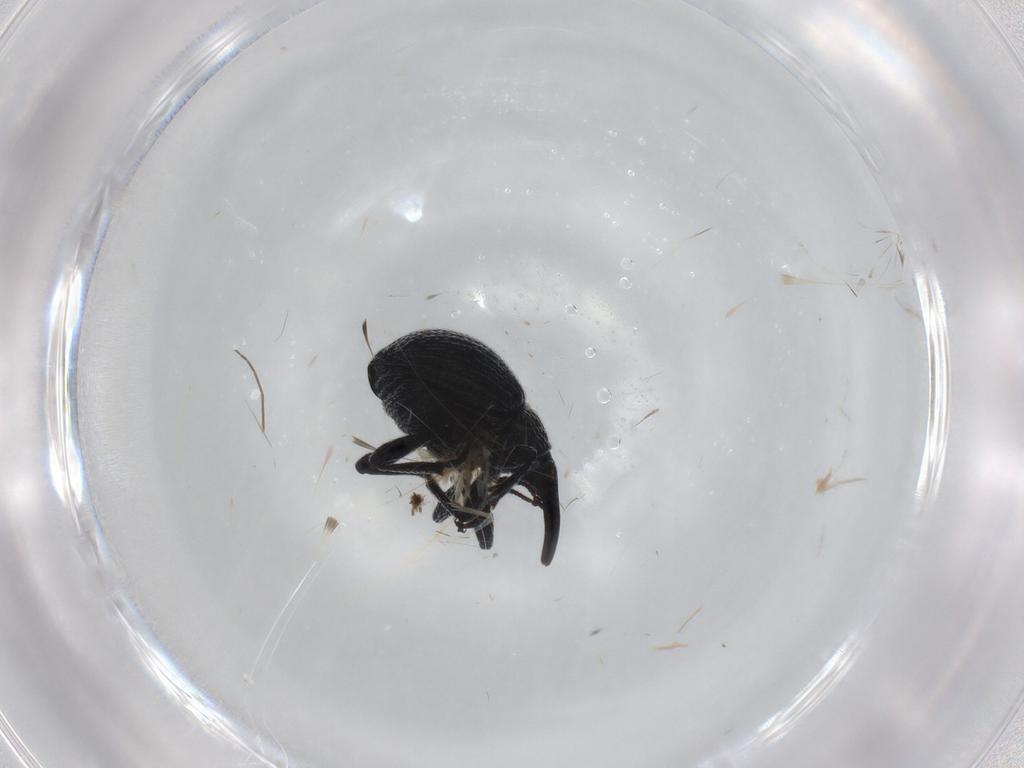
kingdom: Animalia
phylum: Arthropoda
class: Insecta
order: Coleoptera
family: Brentidae
